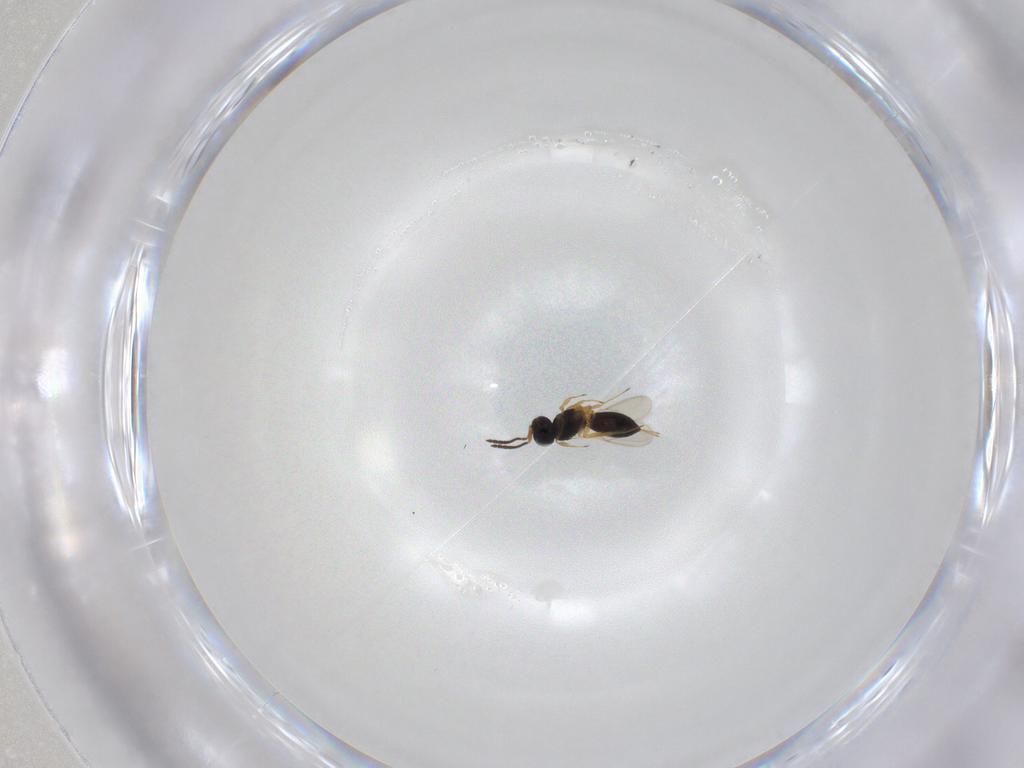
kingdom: Animalia
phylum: Arthropoda
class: Insecta
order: Hymenoptera
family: Scelionidae
